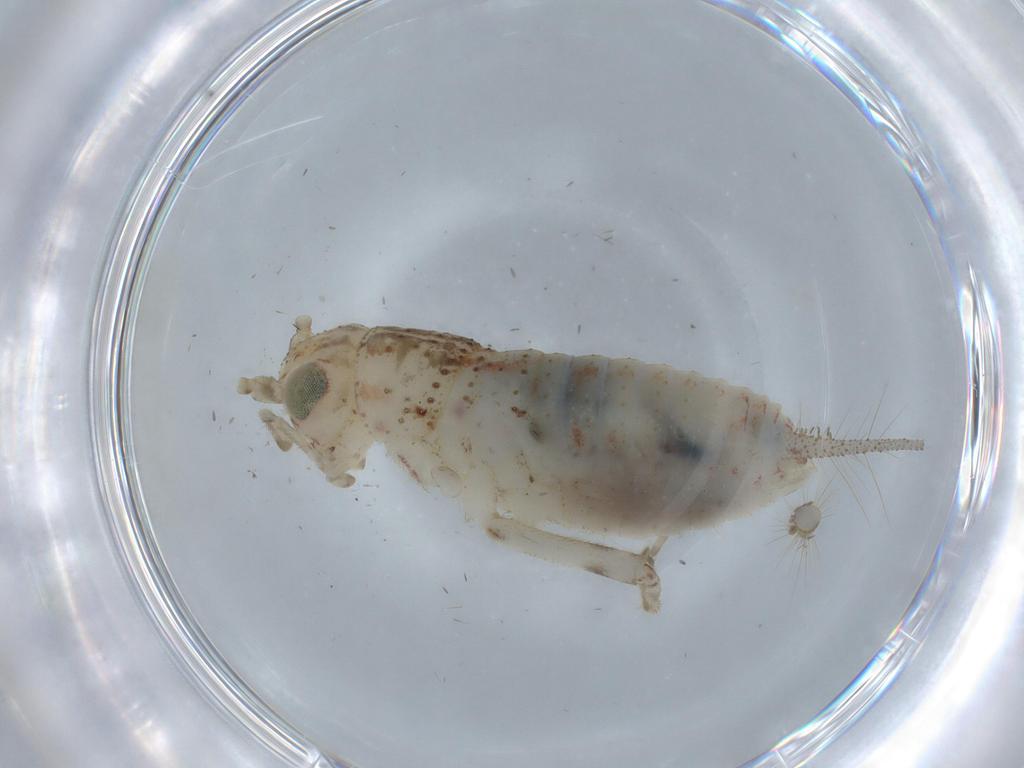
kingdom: Animalia
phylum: Arthropoda
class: Insecta
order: Orthoptera
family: Trigonidiidae
